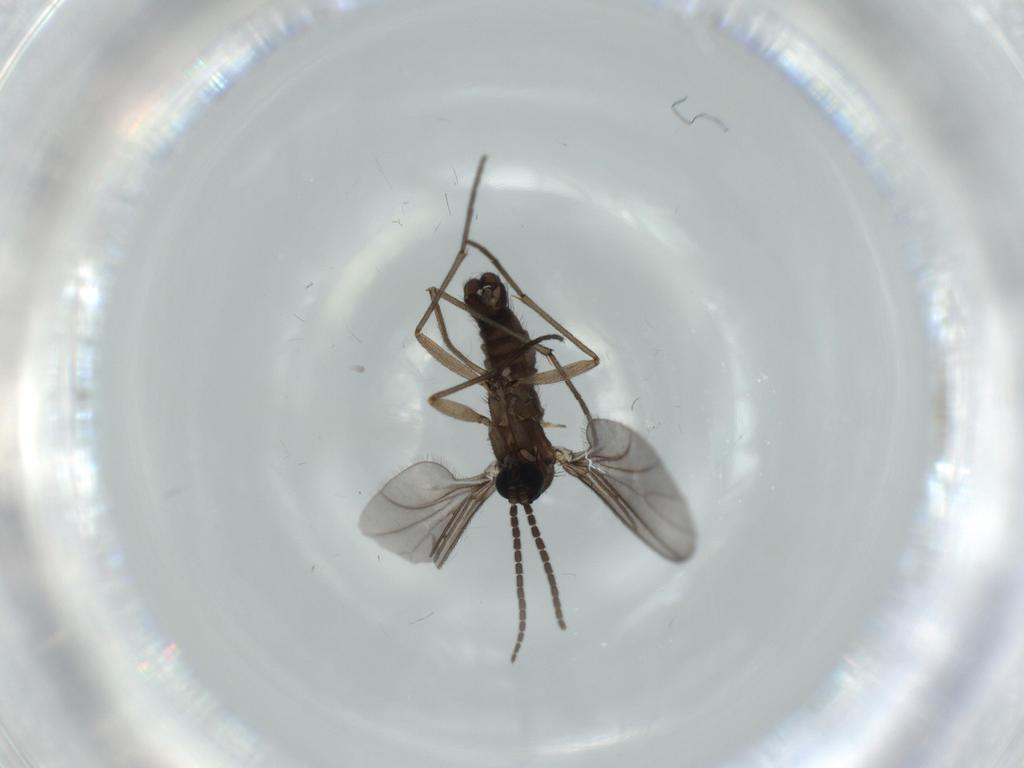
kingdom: Animalia
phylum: Arthropoda
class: Insecta
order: Diptera
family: Sciaridae
